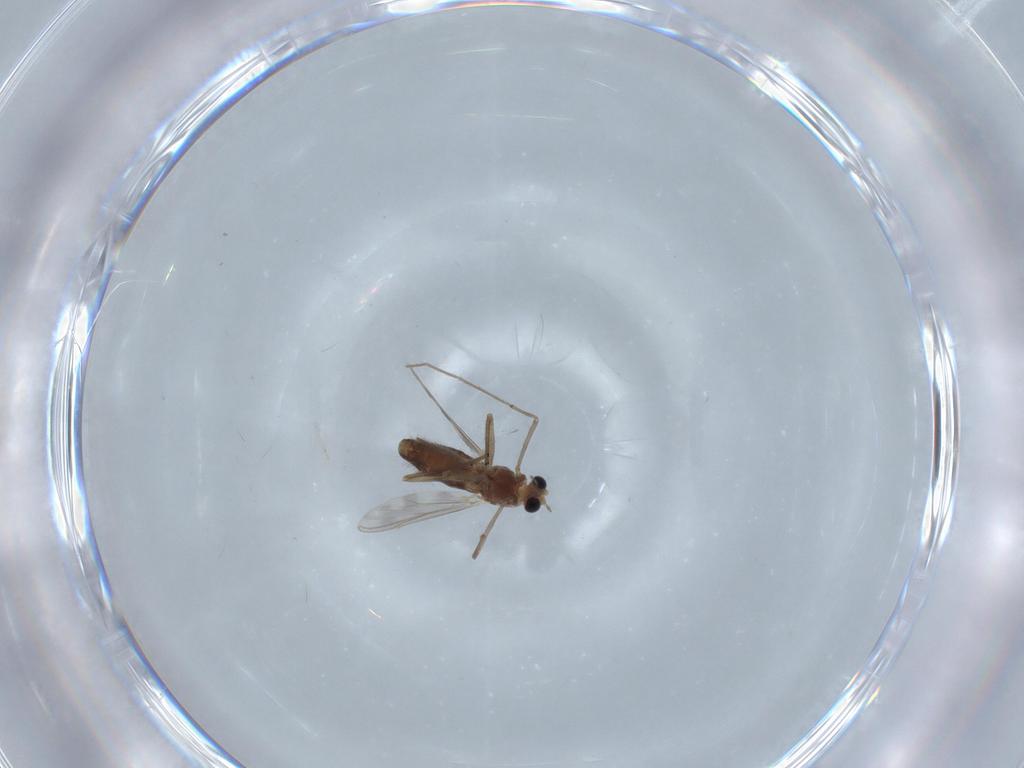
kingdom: Animalia
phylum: Arthropoda
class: Insecta
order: Diptera
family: Chironomidae
